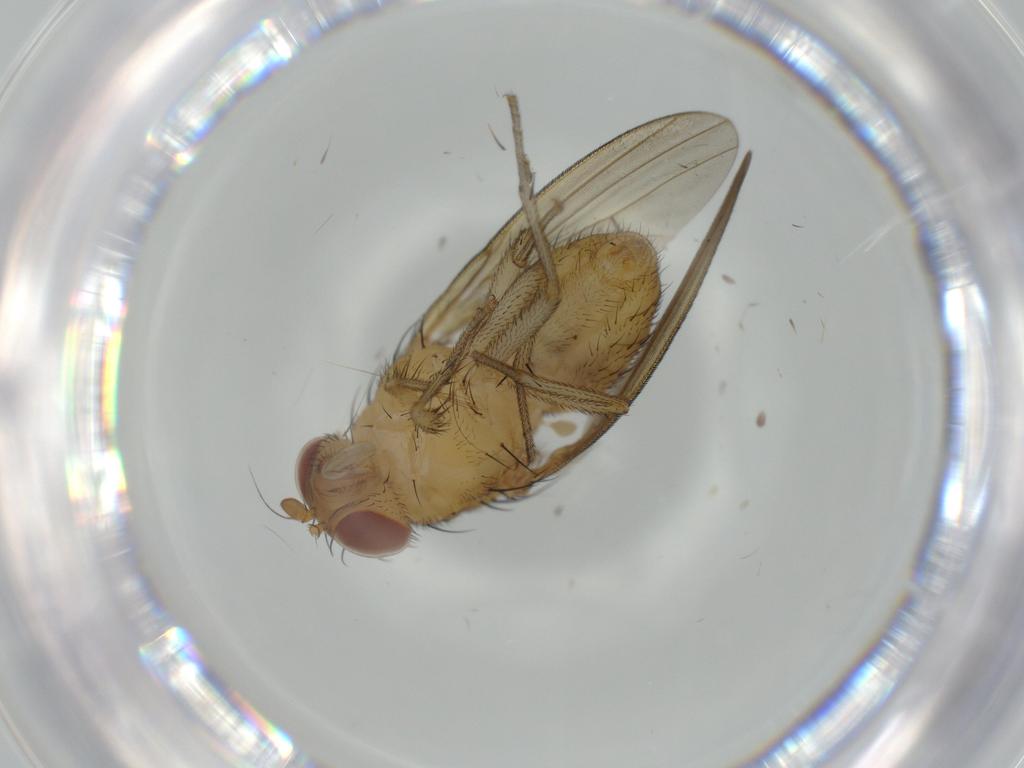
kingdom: Animalia
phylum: Arthropoda
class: Insecta
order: Diptera
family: Lauxaniidae
